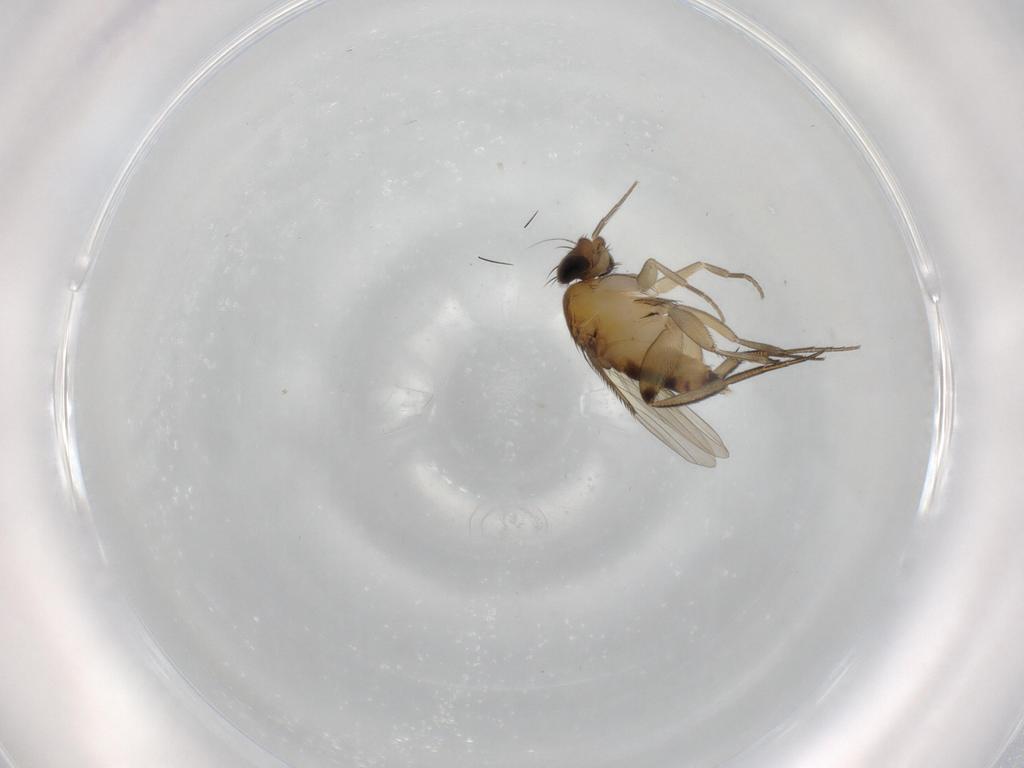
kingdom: Animalia
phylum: Arthropoda
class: Insecta
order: Diptera
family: Phoridae
